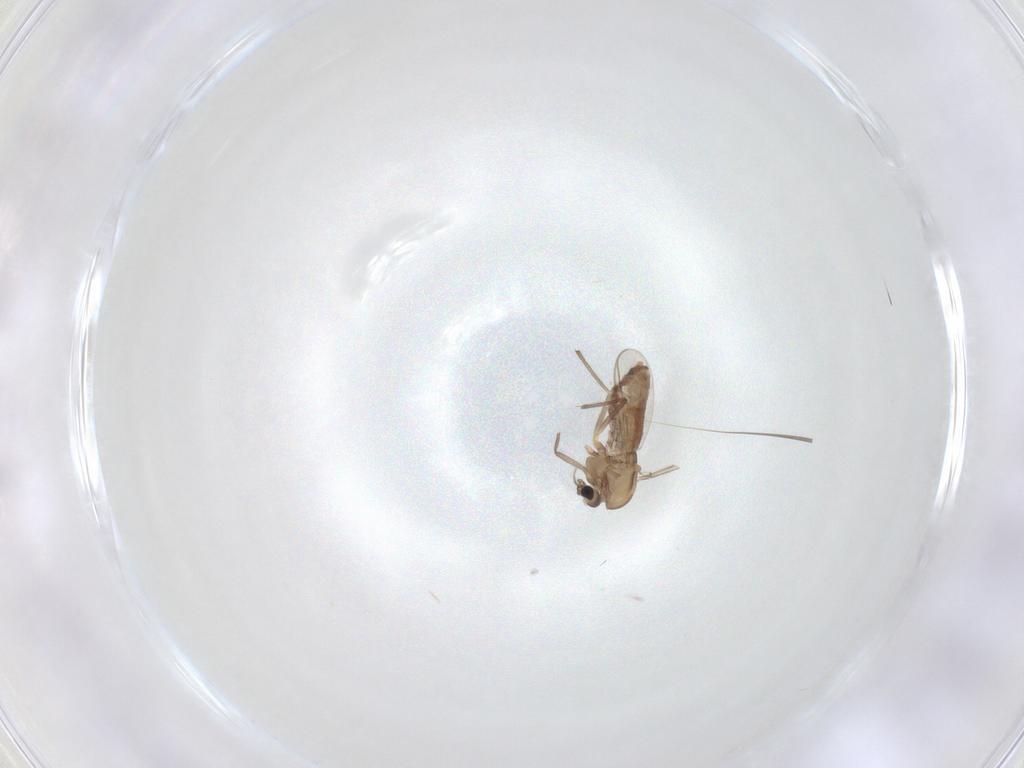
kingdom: Animalia
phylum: Arthropoda
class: Insecta
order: Diptera
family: Chironomidae
